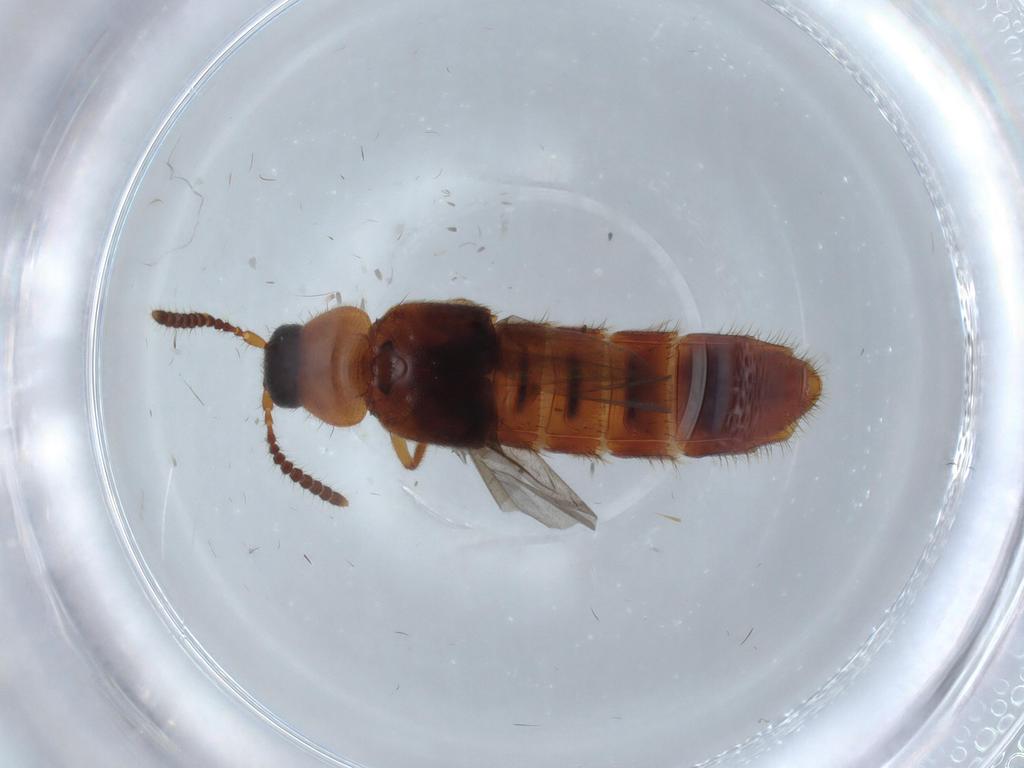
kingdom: Animalia
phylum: Arthropoda
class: Insecta
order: Coleoptera
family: Staphylinidae
